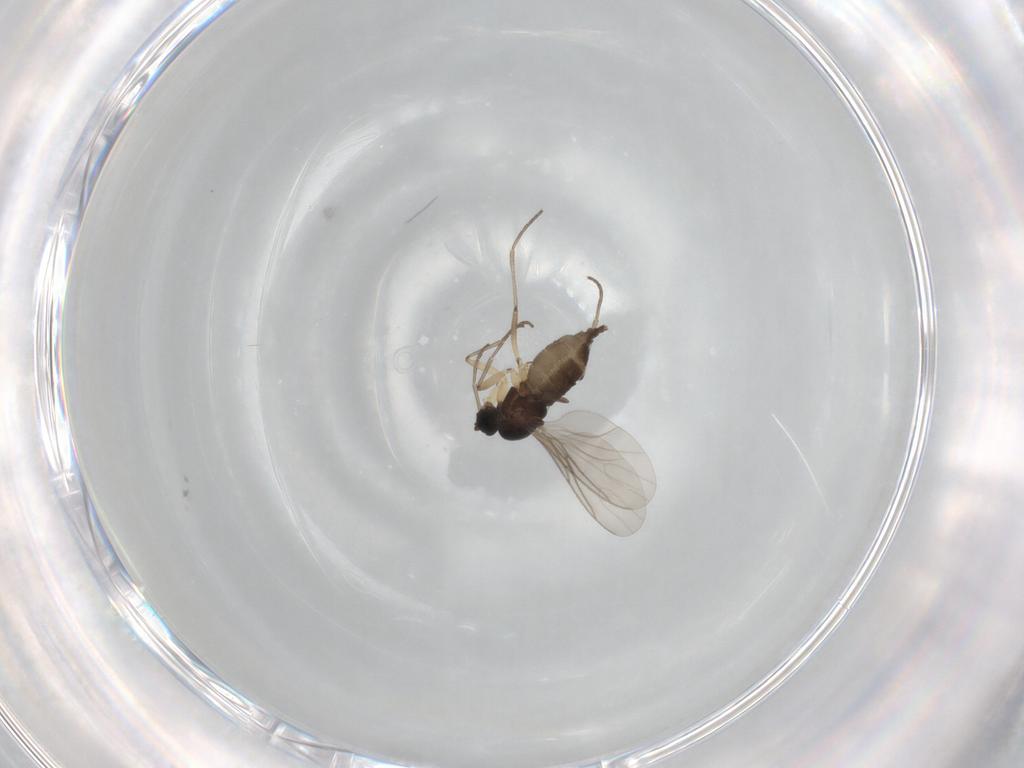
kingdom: Animalia
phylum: Arthropoda
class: Insecta
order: Diptera
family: Sciaridae
